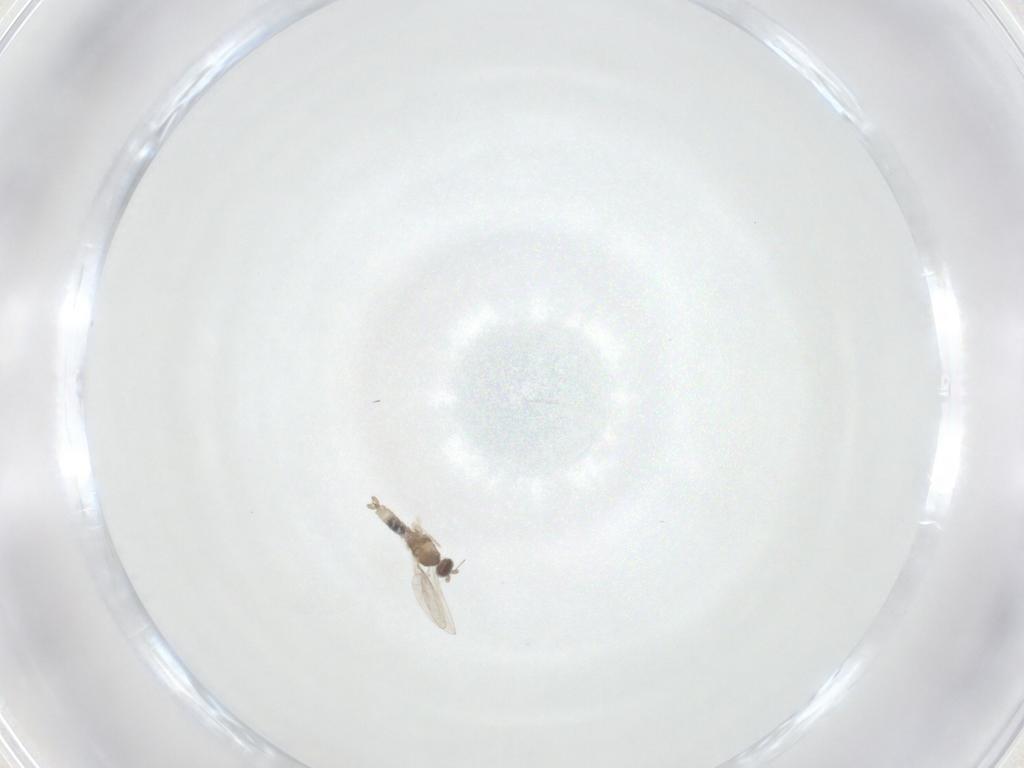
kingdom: Animalia
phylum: Arthropoda
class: Insecta
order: Diptera
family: Cecidomyiidae
